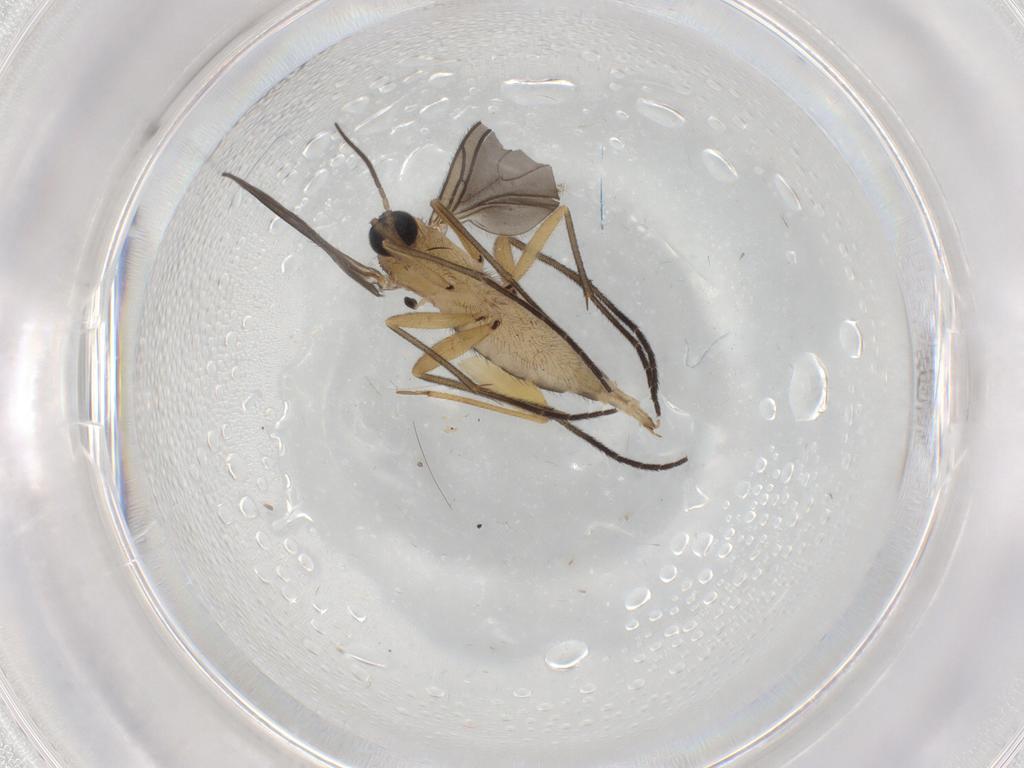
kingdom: Animalia
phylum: Arthropoda
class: Insecta
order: Diptera
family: Sciaridae
